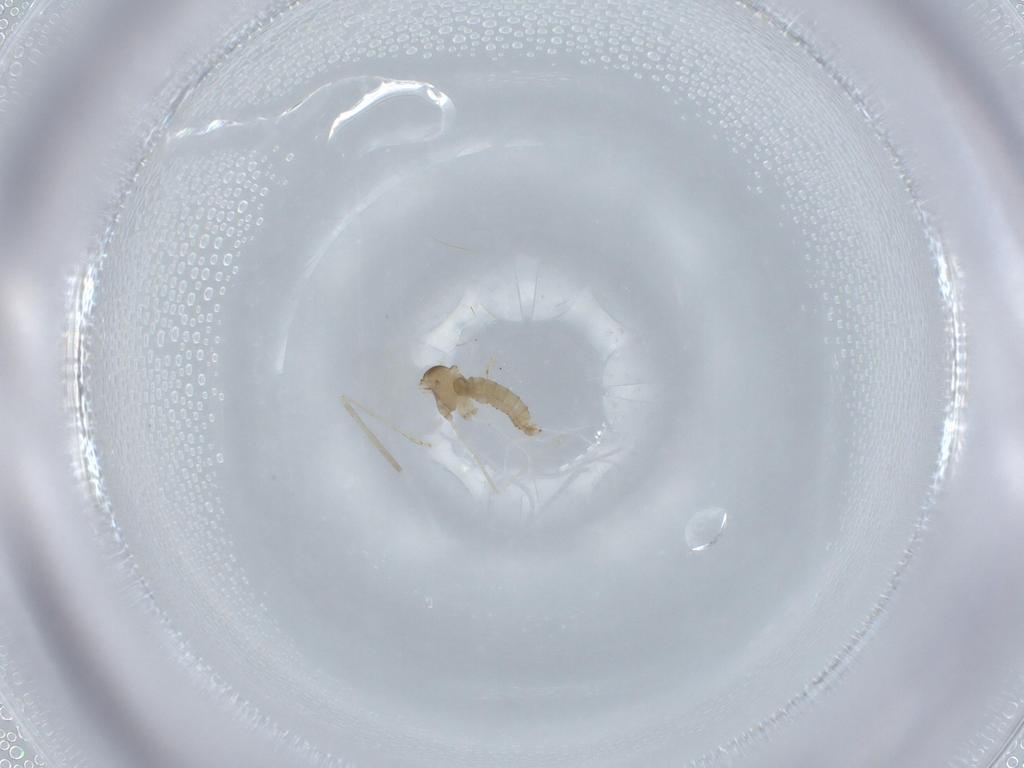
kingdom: Animalia
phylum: Arthropoda
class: Insecta
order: Diptera
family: Cecidomyiidae
